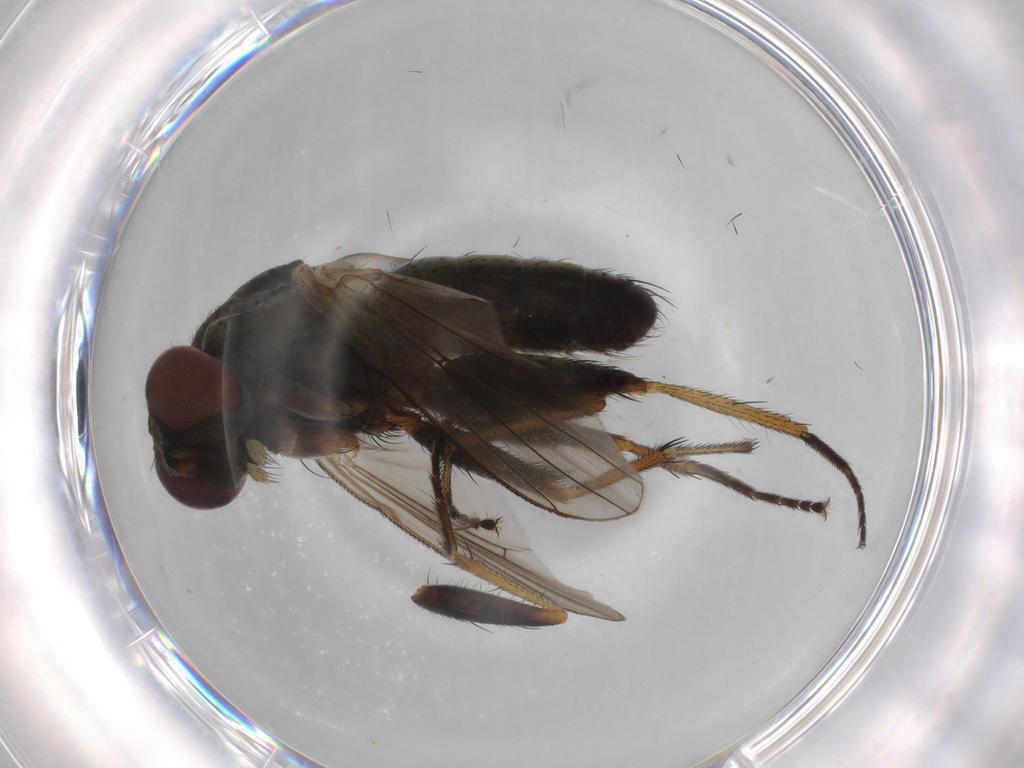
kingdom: Animalia
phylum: Arthropoda
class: Insecta
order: Diptera
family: Muscidae
